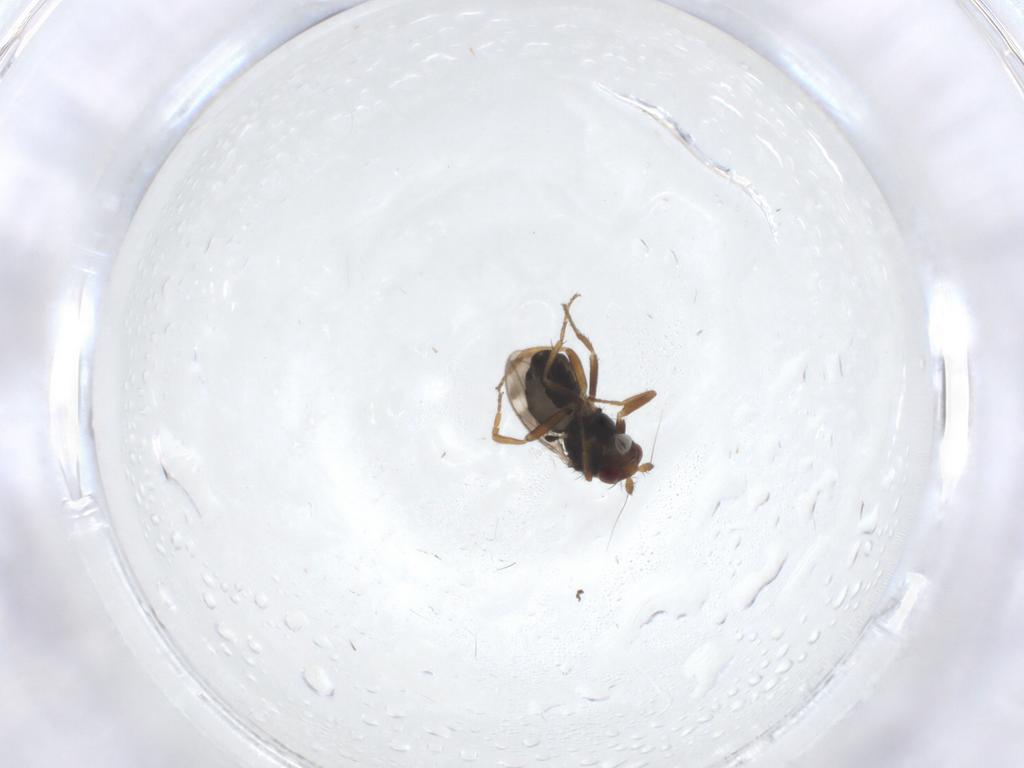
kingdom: Animalia
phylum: Arthropoda
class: Insecta
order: Diptera
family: Sphaeroceridae
